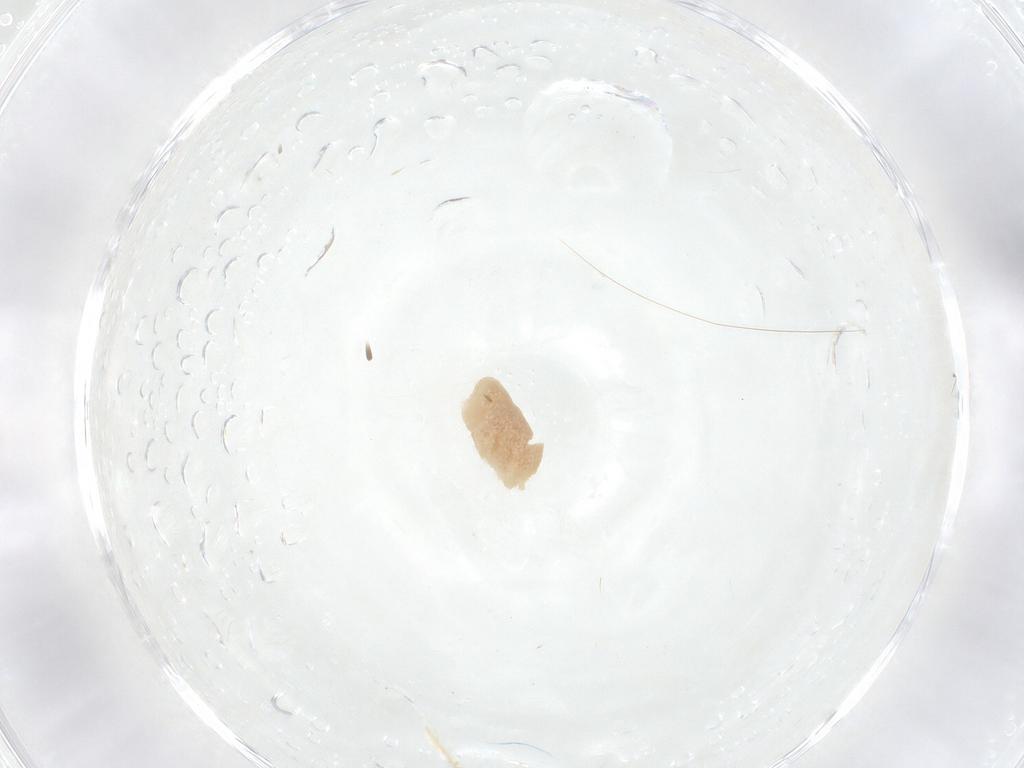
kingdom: Animalia
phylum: Arthropoda
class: Arachnida
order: Araneae
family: Anyphaenidae
